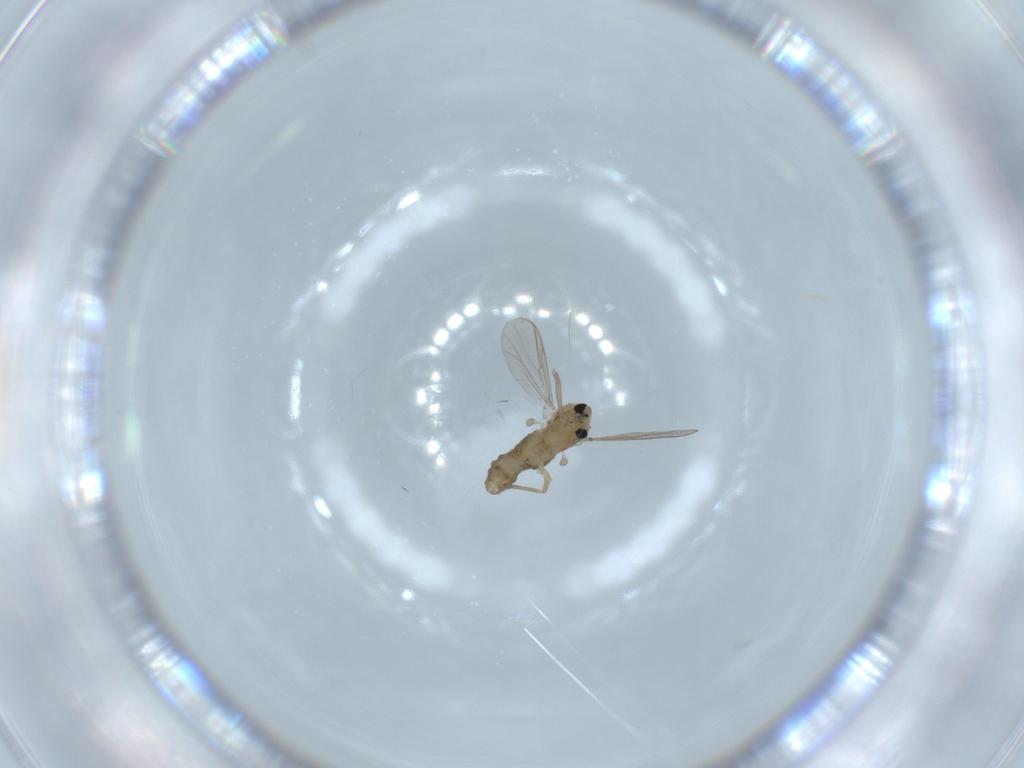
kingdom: Animalia
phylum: Arthropoda
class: Insecta
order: Diptera
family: Chironomidae
